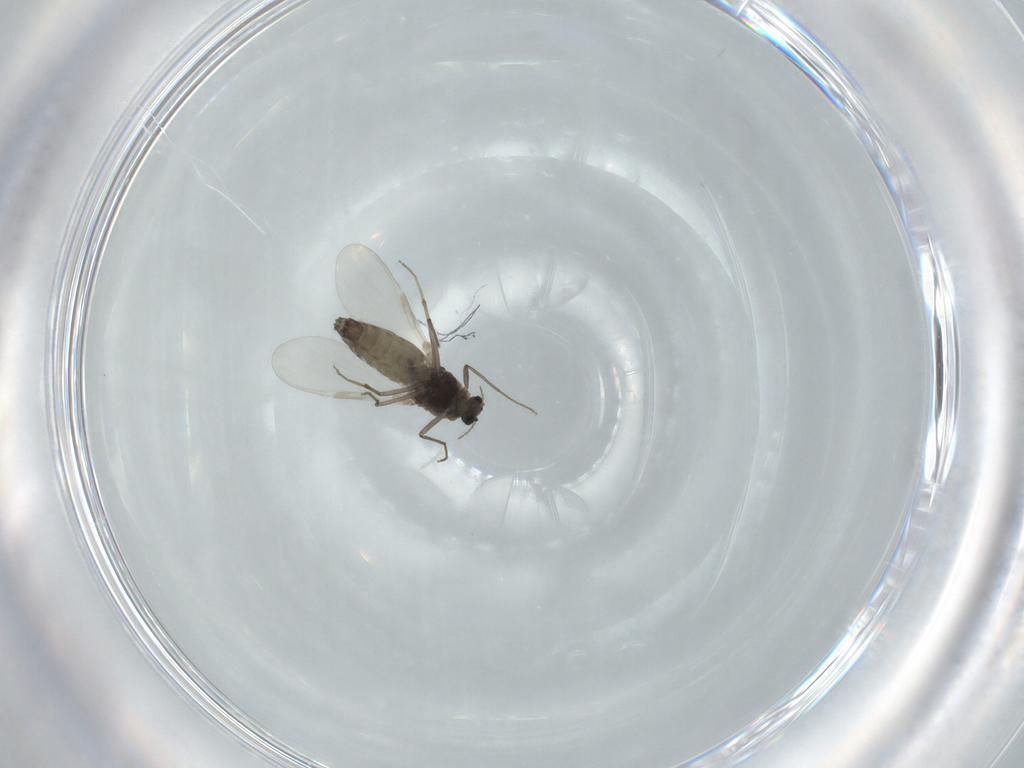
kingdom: Animalia
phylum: Arthropoda
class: Insecta
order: Diptera
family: Chironomidae
